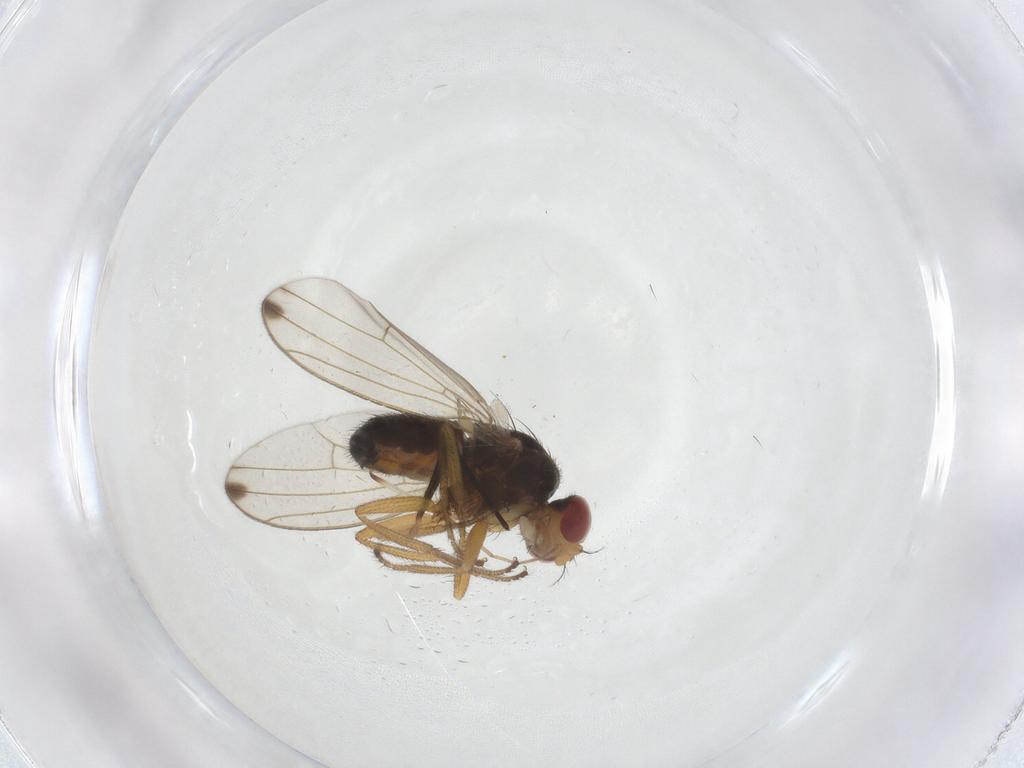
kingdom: Animalia
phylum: Arthropoda
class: Insecta
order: Diptera
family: Drosophilidae
